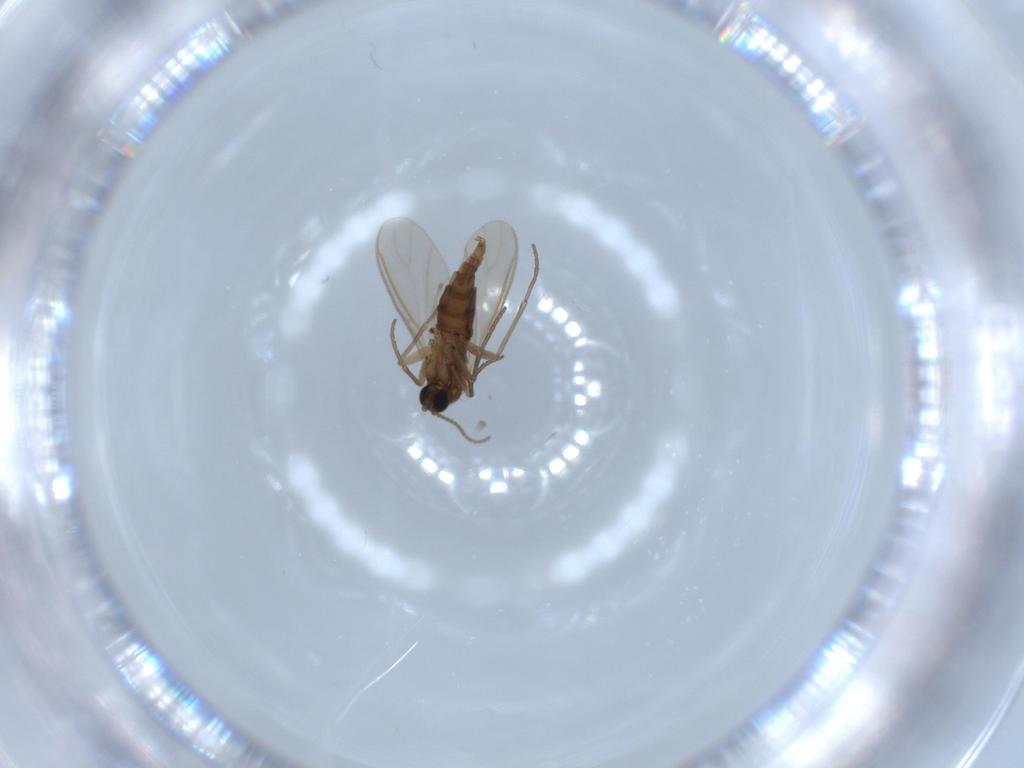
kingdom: Animalia
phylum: Arthropoda
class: Insecta
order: Diptera
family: Sciaridae
